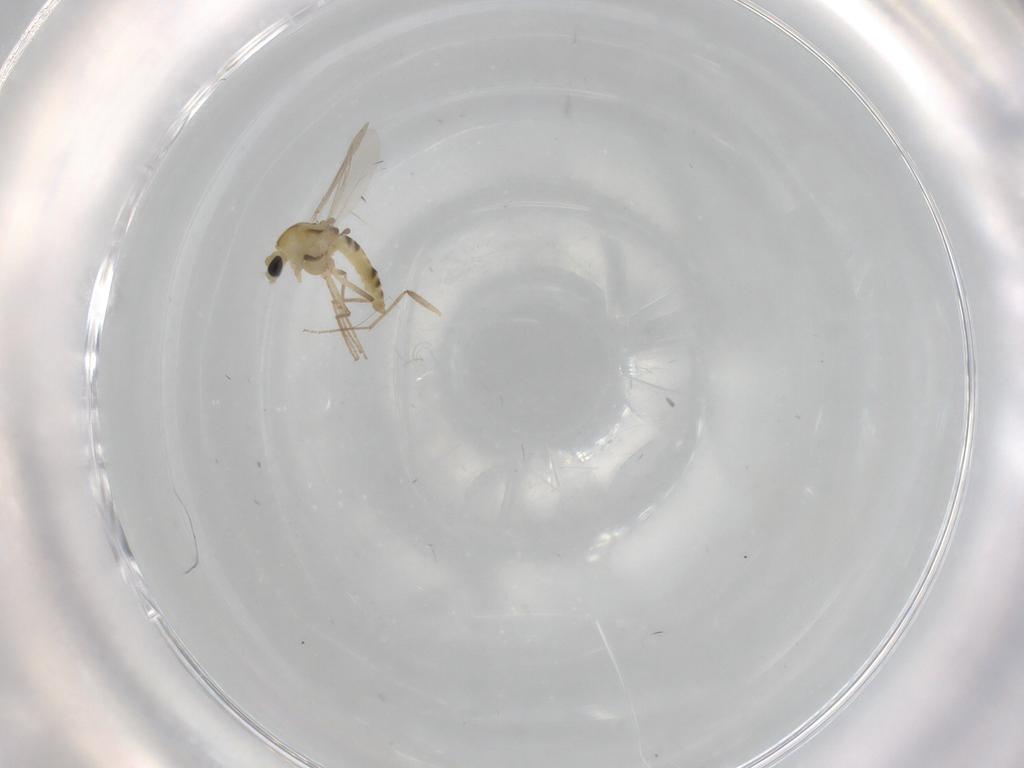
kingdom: Animalia
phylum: Arthropoda
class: Insecta
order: Diptera
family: Chironomidae
